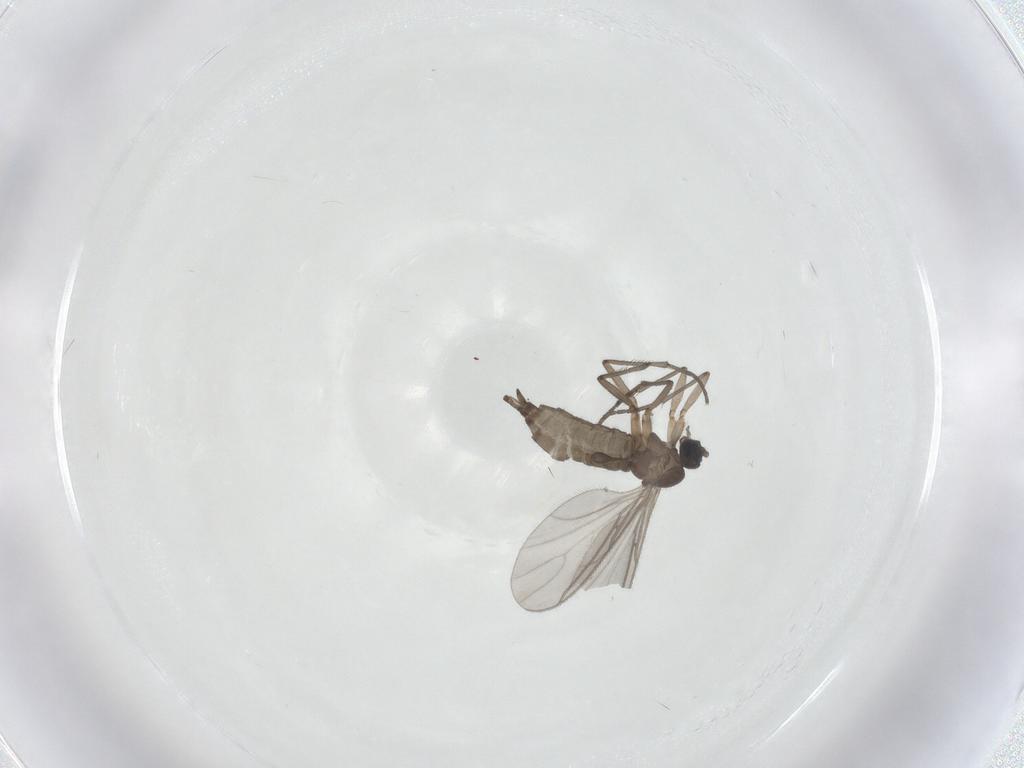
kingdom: Animalia
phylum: Arthropoda
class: Insecta
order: Diptera
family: Sciaridae
